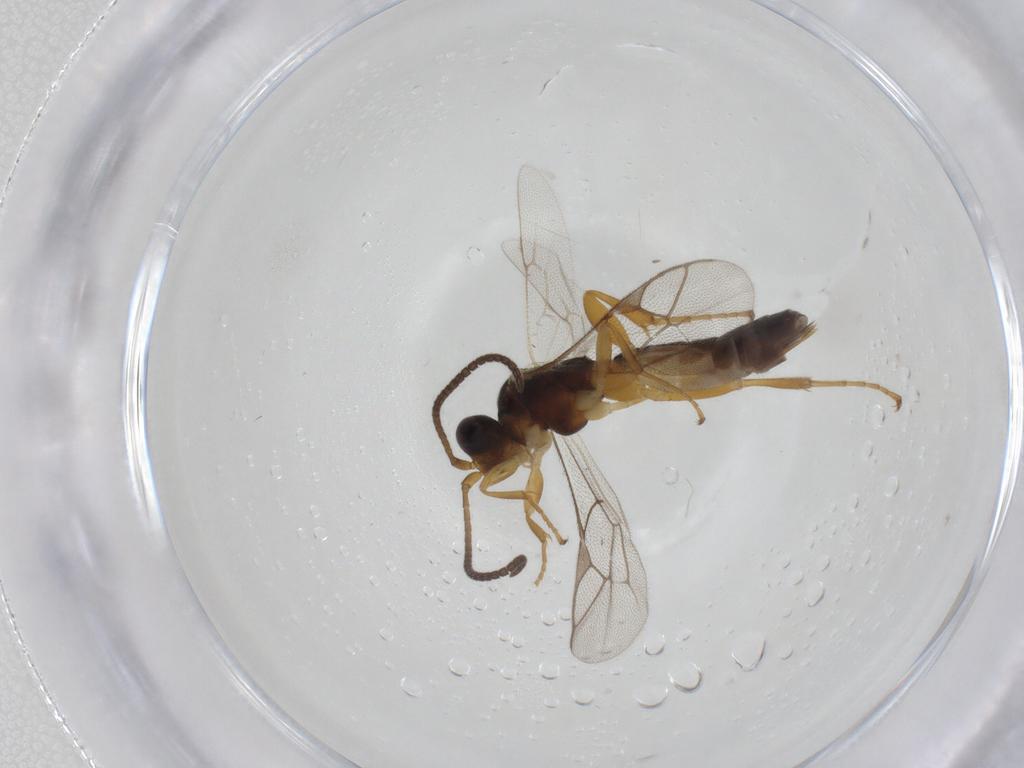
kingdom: Animalia
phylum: Arthropoda
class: Insecta
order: Hymenoptera
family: Ichneumonidae
